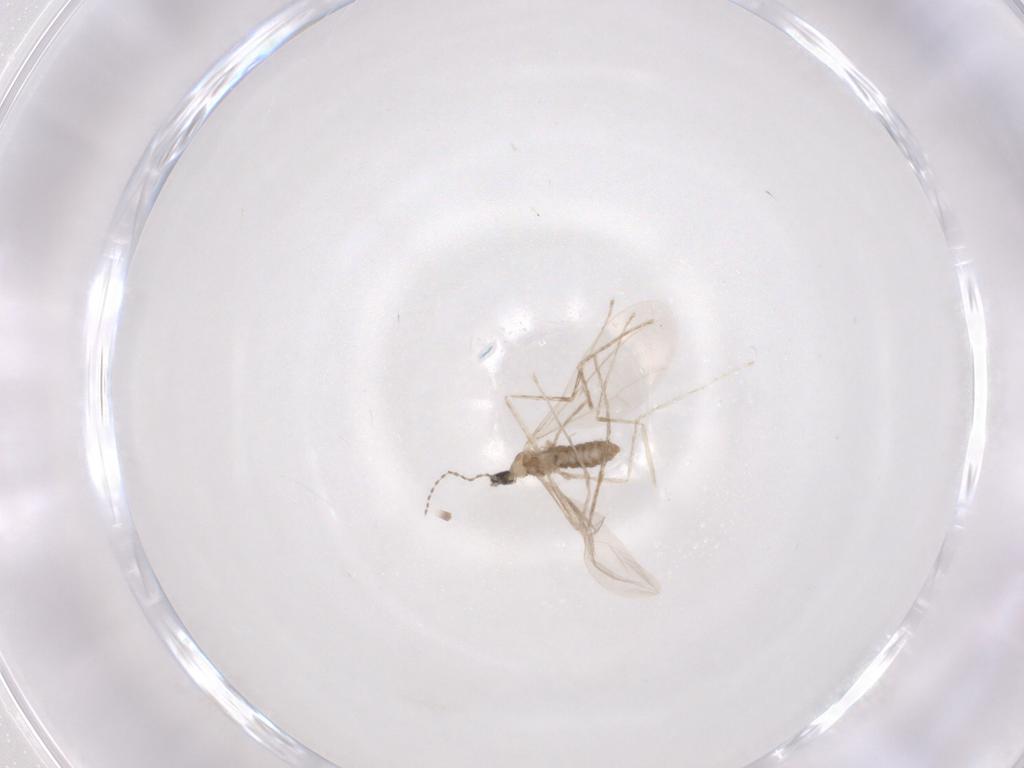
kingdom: Animalia
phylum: Arthropoda
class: Insecta
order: Diptera
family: Cecidomyiidae
